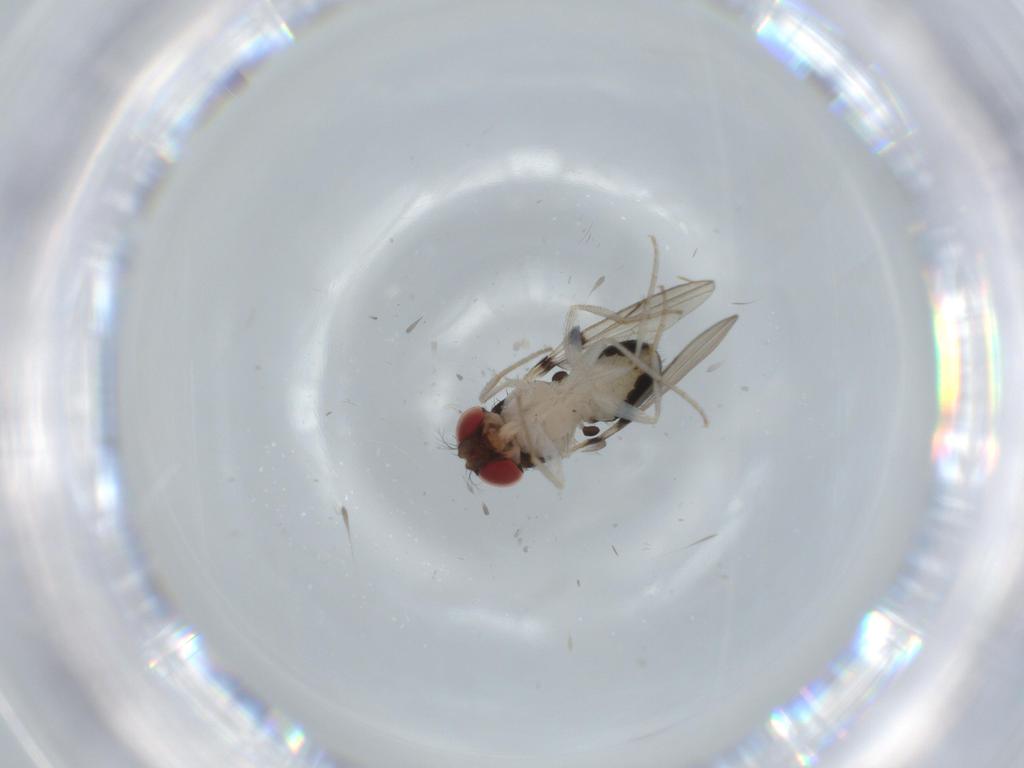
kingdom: Animalia
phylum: Arthropoda
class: Insecta
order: Diptera
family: Drosophilidae
